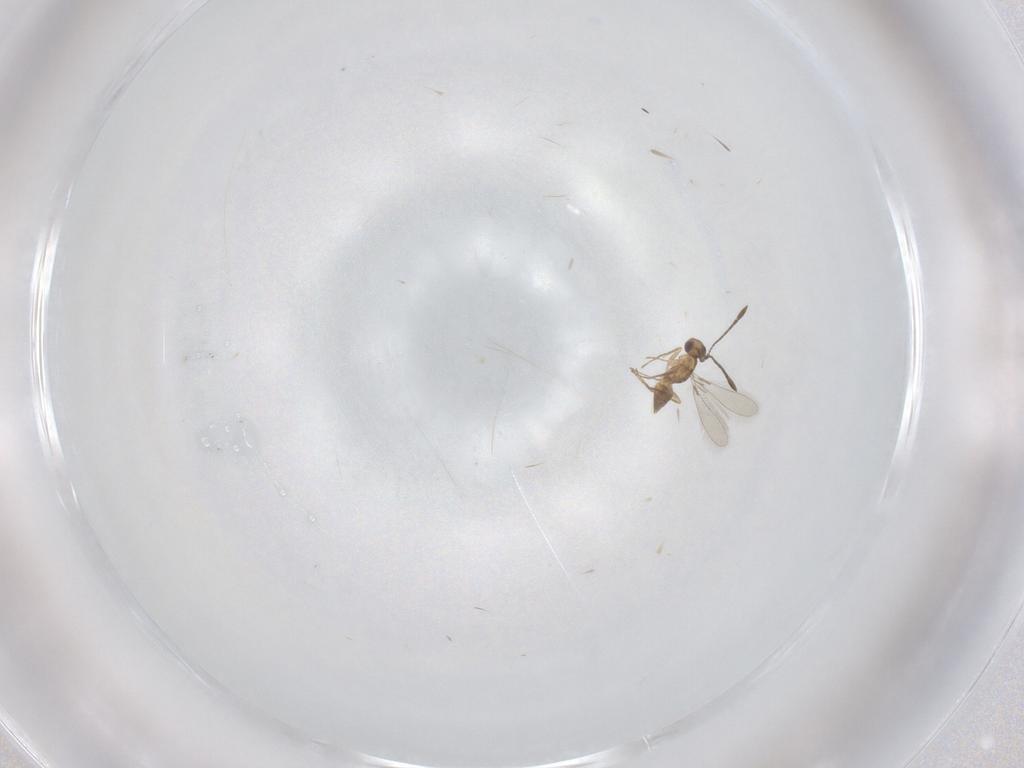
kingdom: Animalia
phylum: Arthropoda
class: Insecta
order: Hymenoptera
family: Mymaridae
